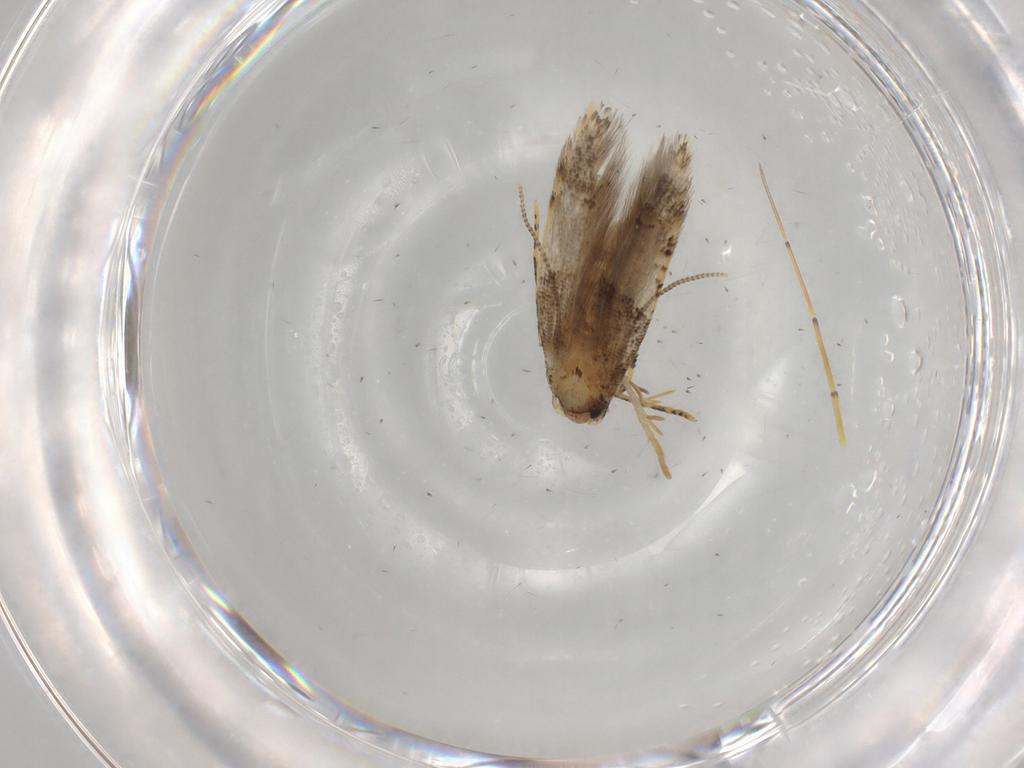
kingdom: Animalia
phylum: Arthropoda
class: Insecta
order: Lepidoptera
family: Tineidae
